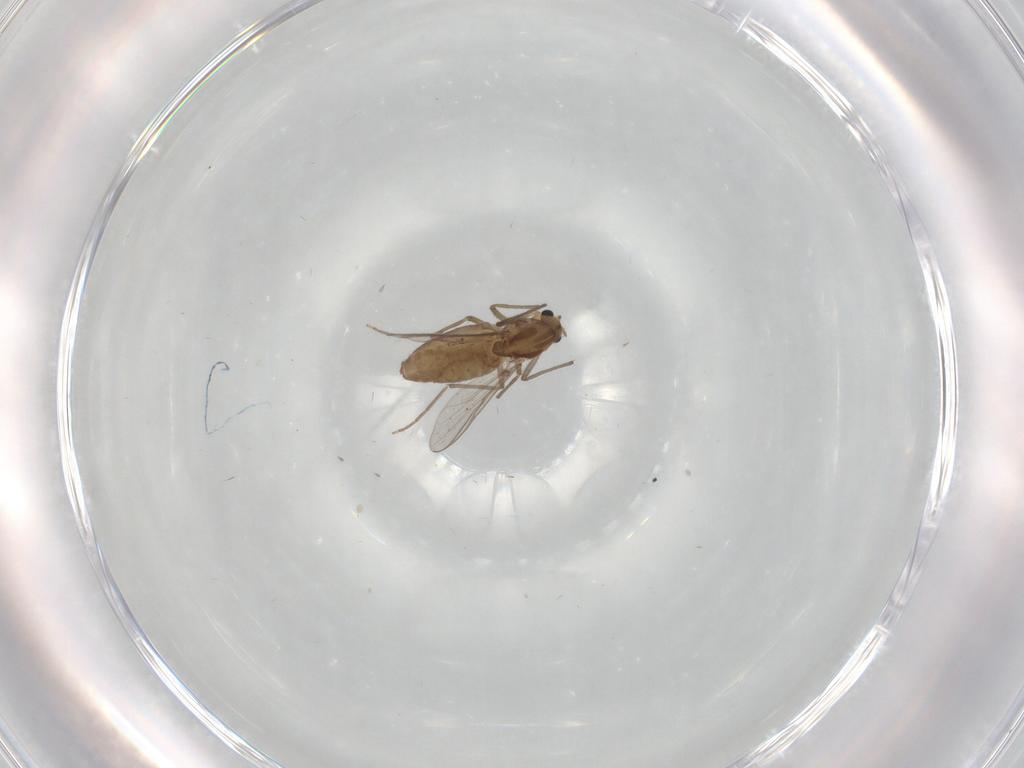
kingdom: Animalia
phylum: Arthropoda
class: Insecta
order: Diptera
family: Chironomidae
